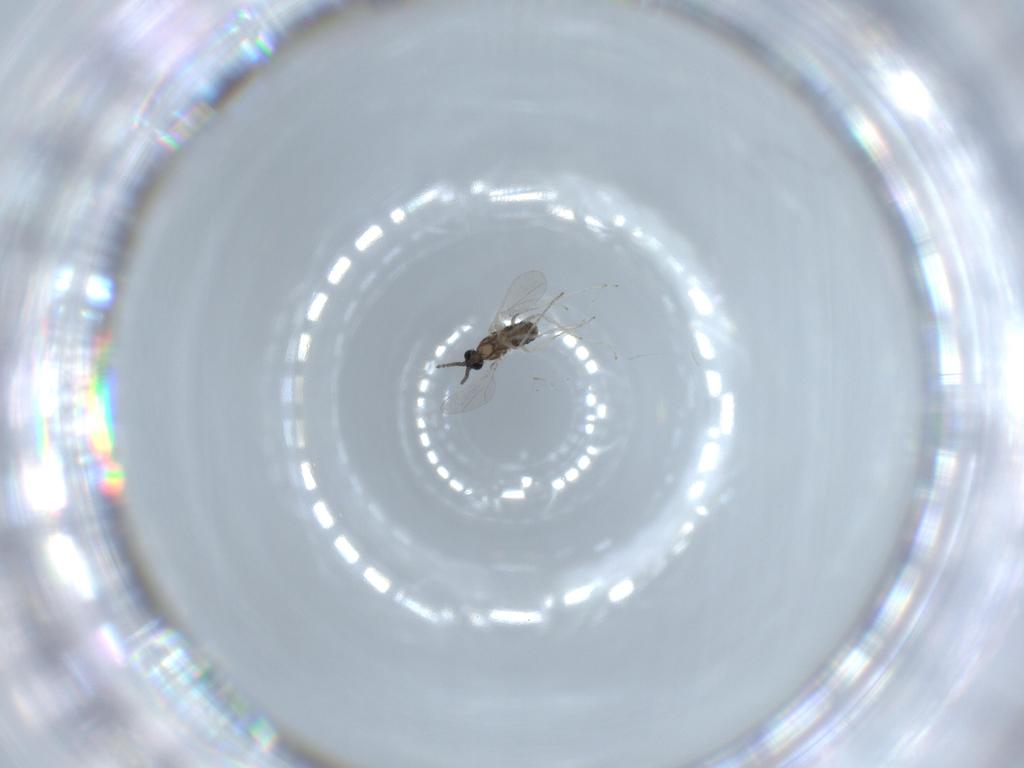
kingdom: Animalia
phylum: Arthropoda
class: Insecta
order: Diptera
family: Cecidomyiidae
